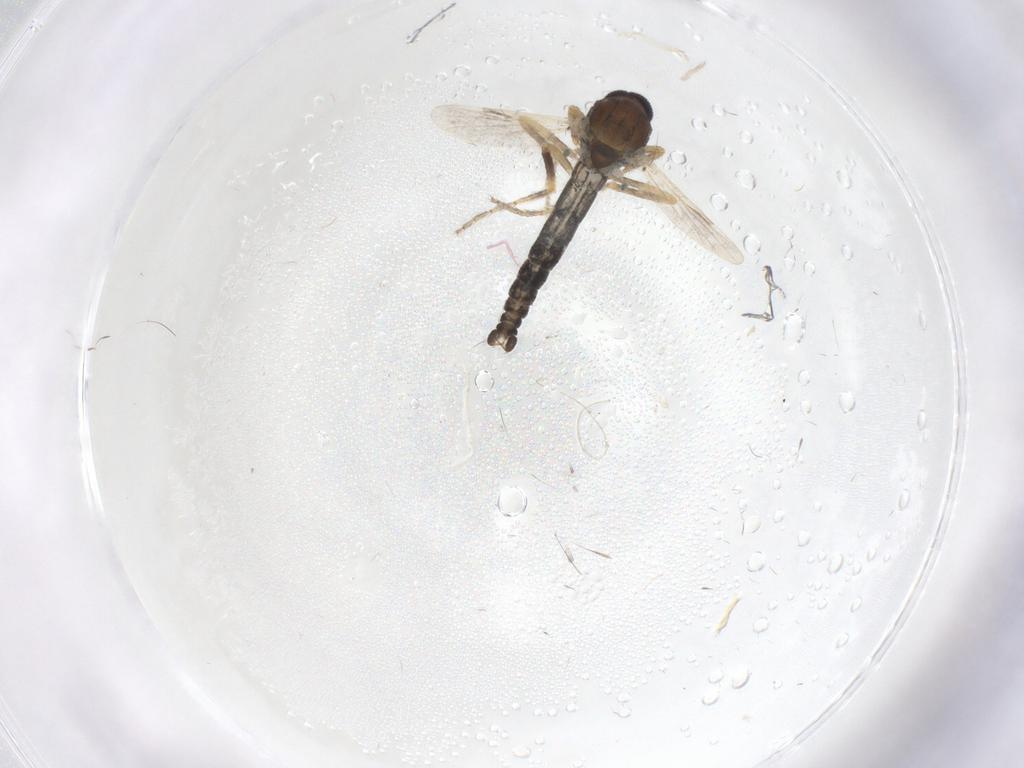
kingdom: Animalia
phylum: Arthropoda
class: Insecta
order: Diptera
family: Ceratopogonidae
